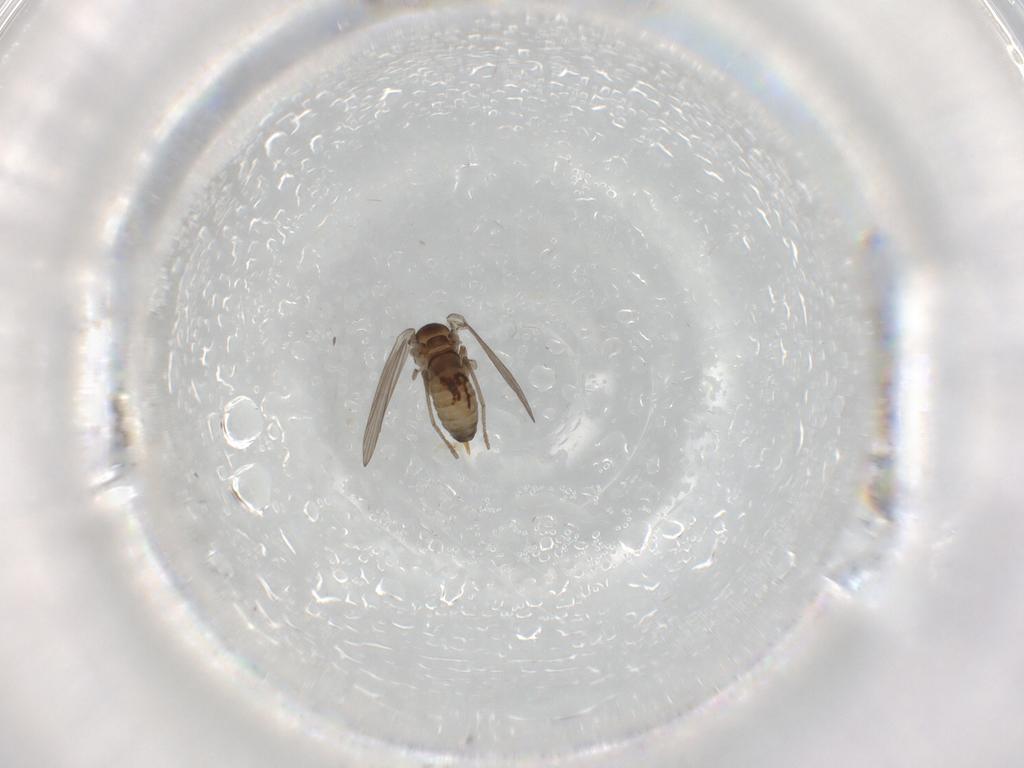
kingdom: Animalia
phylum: Arthropoda
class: Insecta
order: Diptera
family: Psychodidae
